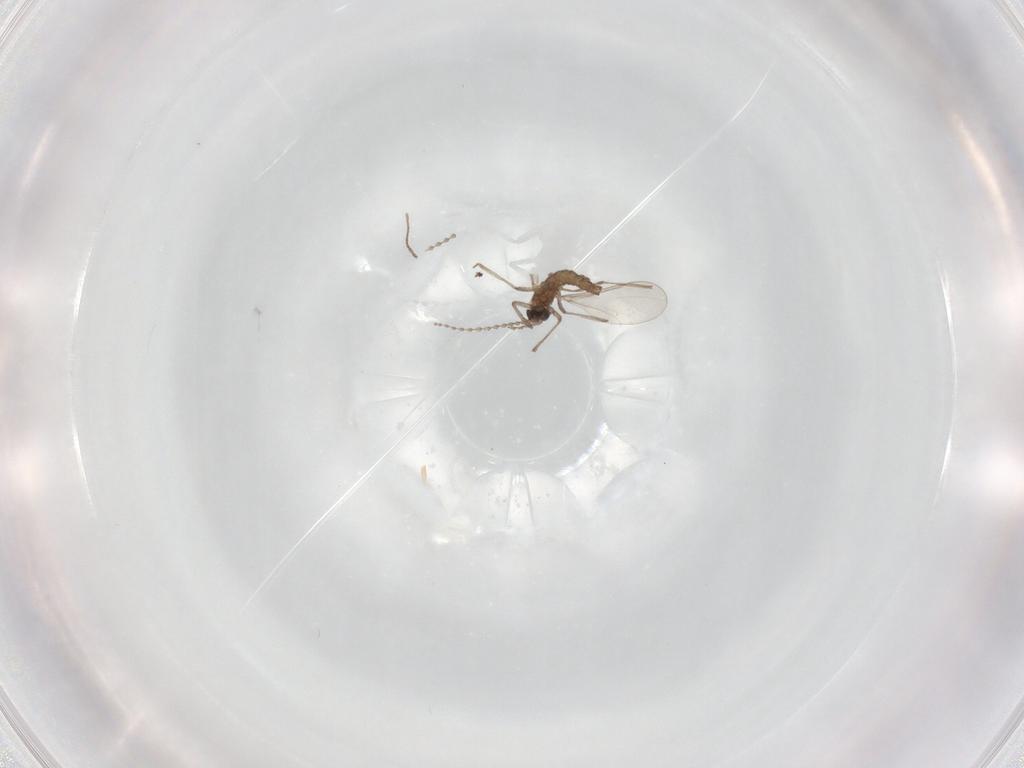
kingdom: Animalia
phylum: Arthropoda
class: Insecta
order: Diptera
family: Cecidomyiidae
